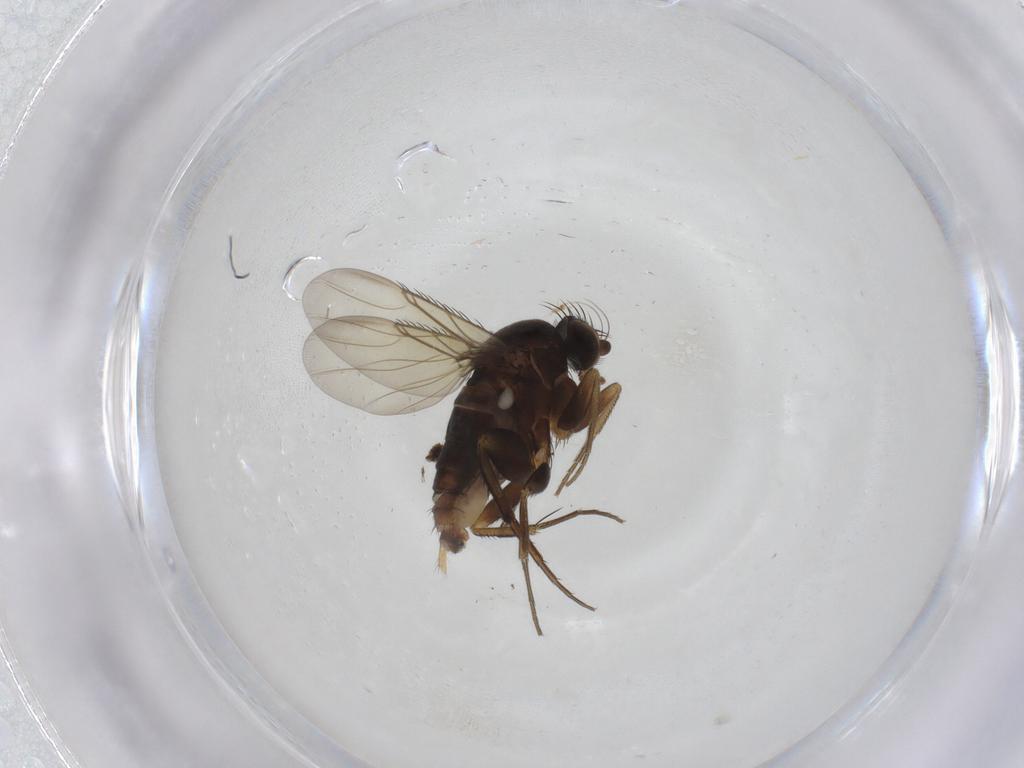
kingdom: Animalia
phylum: Arthropoda
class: Insecta
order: Diptera
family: Phoridae
